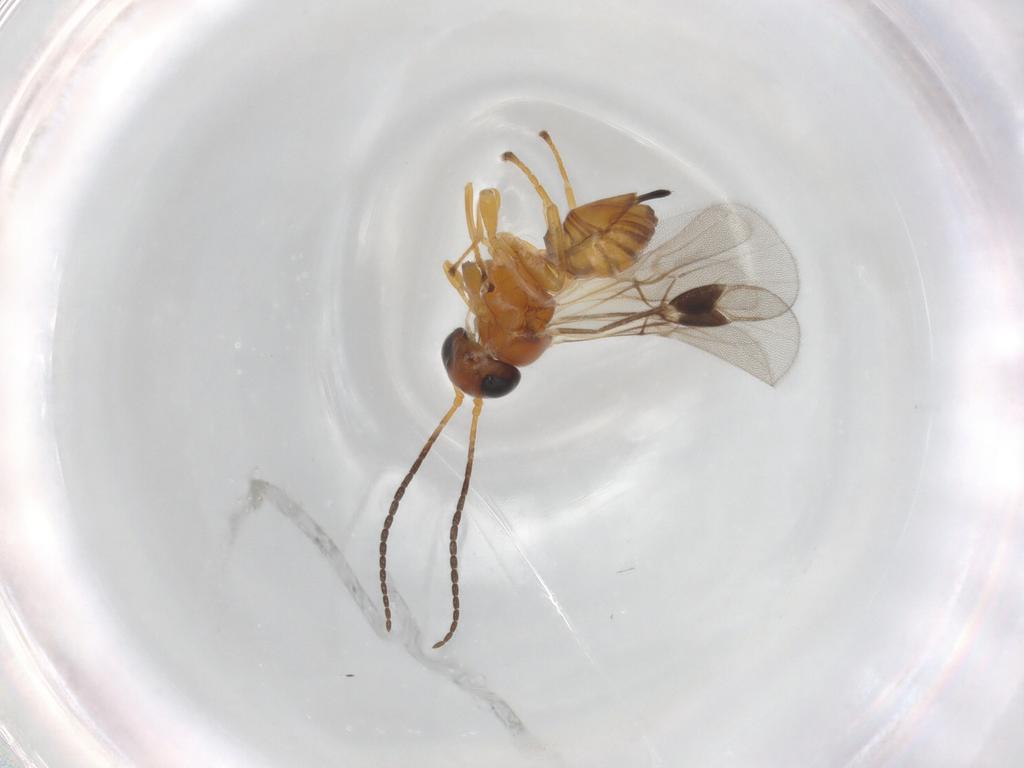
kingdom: Animalia
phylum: Arthropoda
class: Insecta
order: Hymenoptera
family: Braconidae
